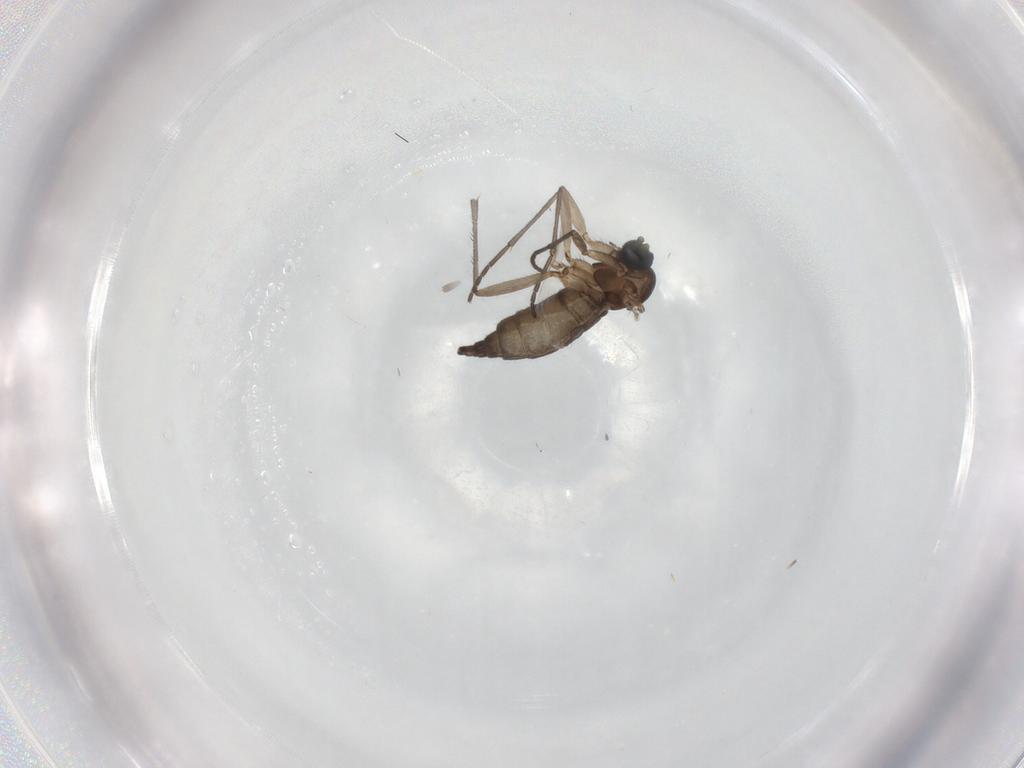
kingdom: Animalia
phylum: Arthropoda
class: Insecta
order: Diptera
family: Sciaridae
